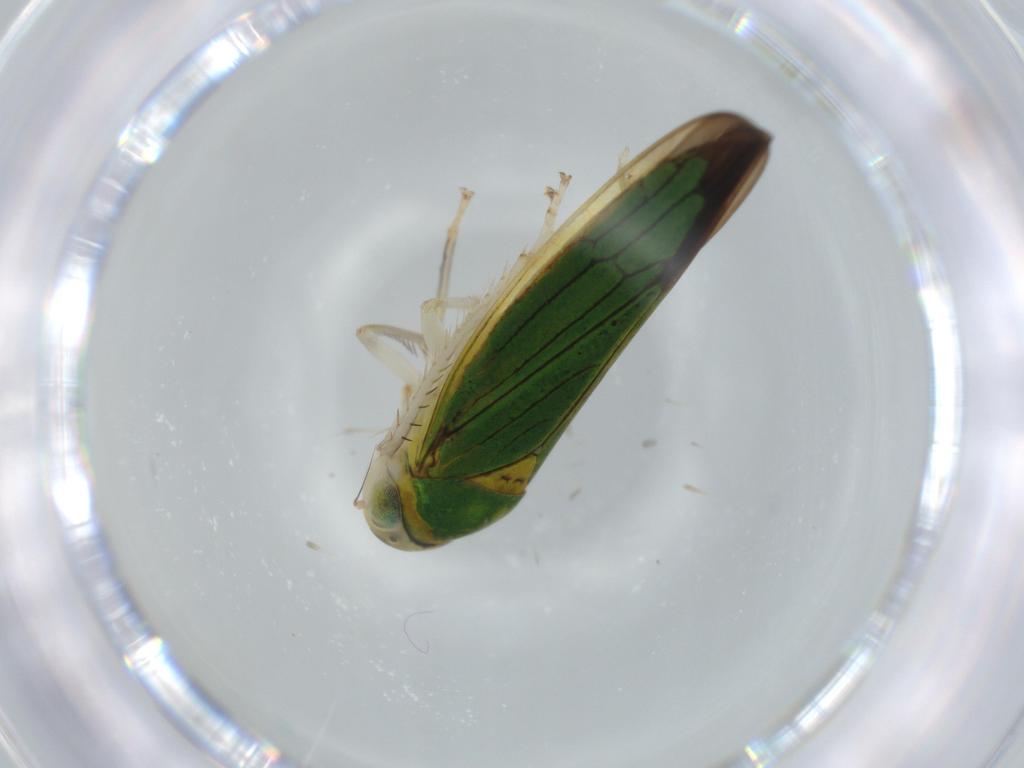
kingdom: Animalia
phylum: Arthropoda
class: Insecta
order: Hemiptera
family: Cicadellidae
